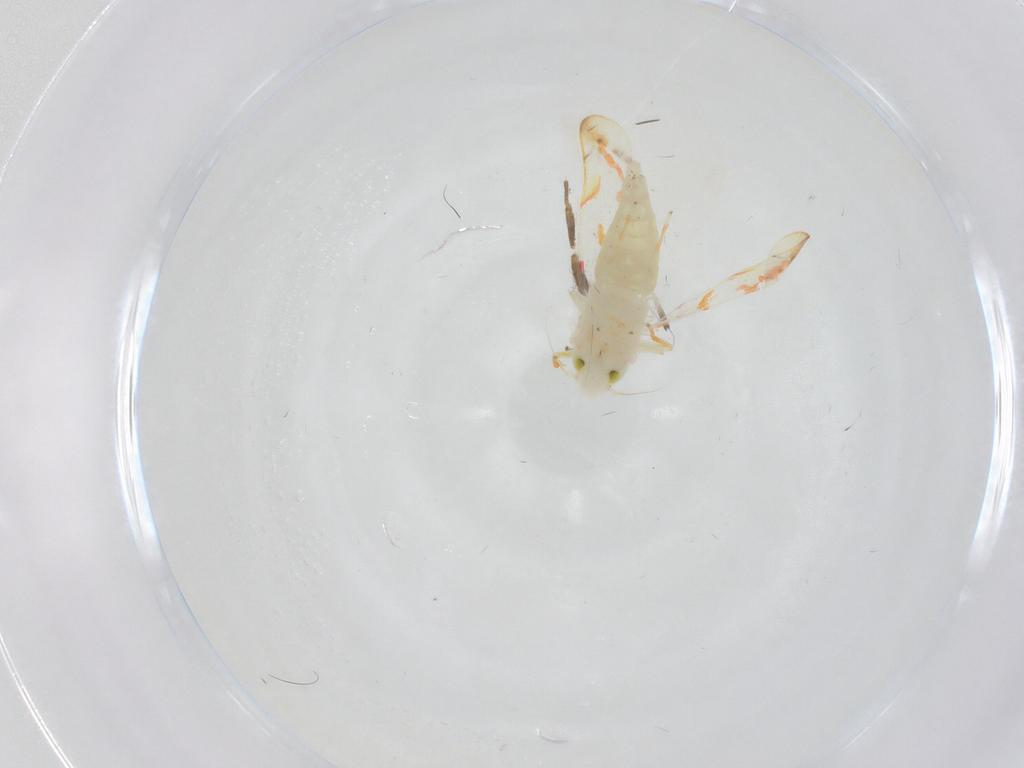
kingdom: Animalia
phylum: Arthropoda
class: Insecta
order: Hemiptera
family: Cicadellidae
